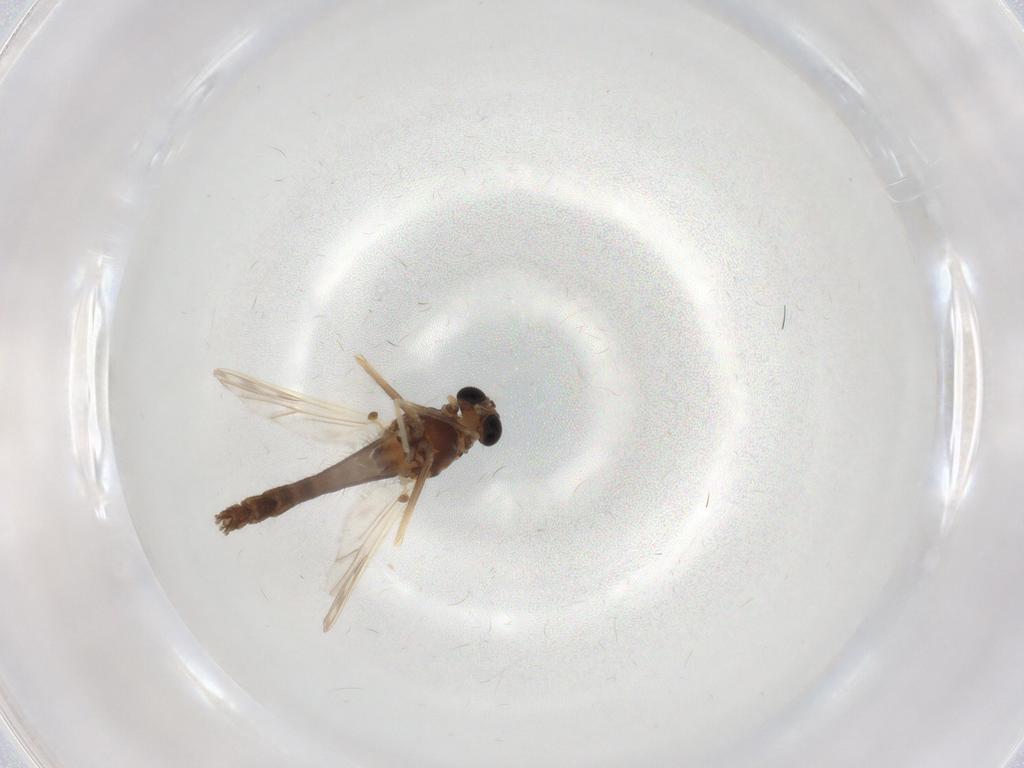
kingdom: Animalia
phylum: Arthropoda
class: Insecta
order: Diptera
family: Chironomidae
